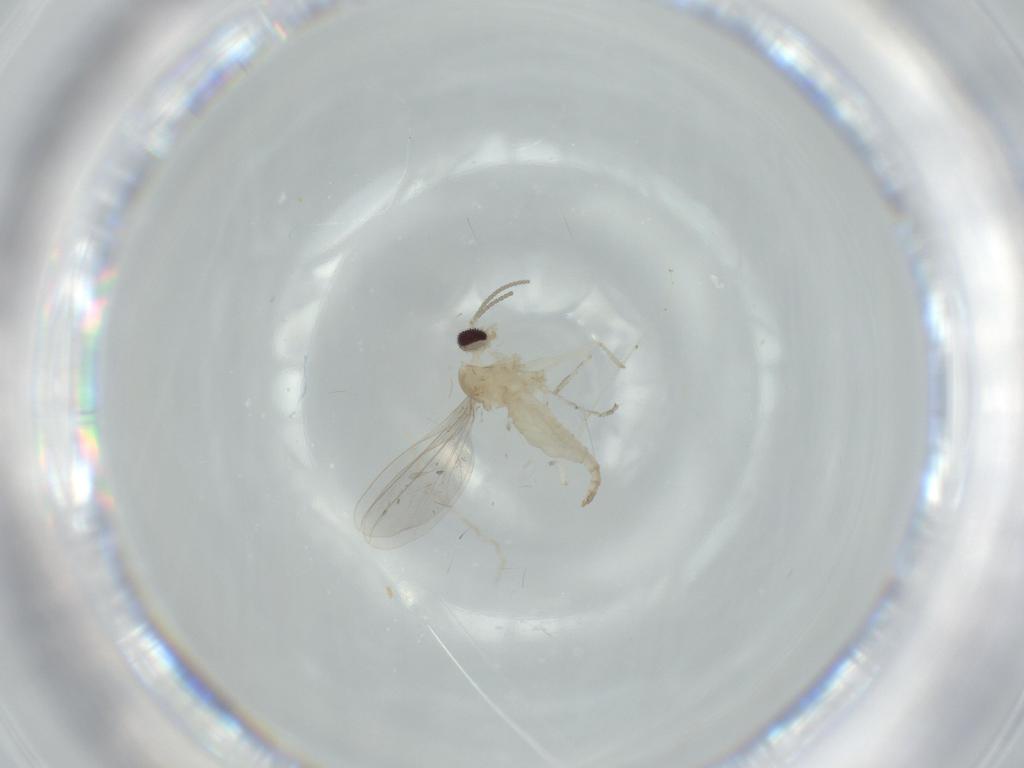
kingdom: Animalia
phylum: Arthropoda
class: Insecta
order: Diptera
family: Cecidomyiidae
